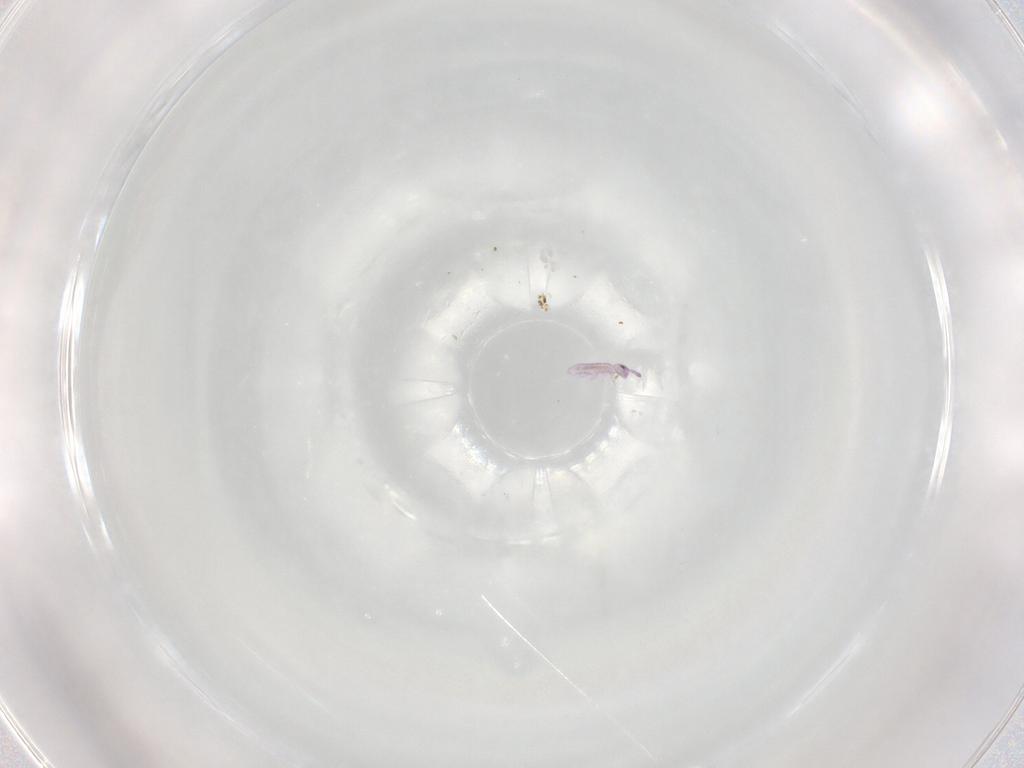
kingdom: Animalia
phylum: Arthropoda
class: Collembola
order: Entomobryomorpha
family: Isotomidae
